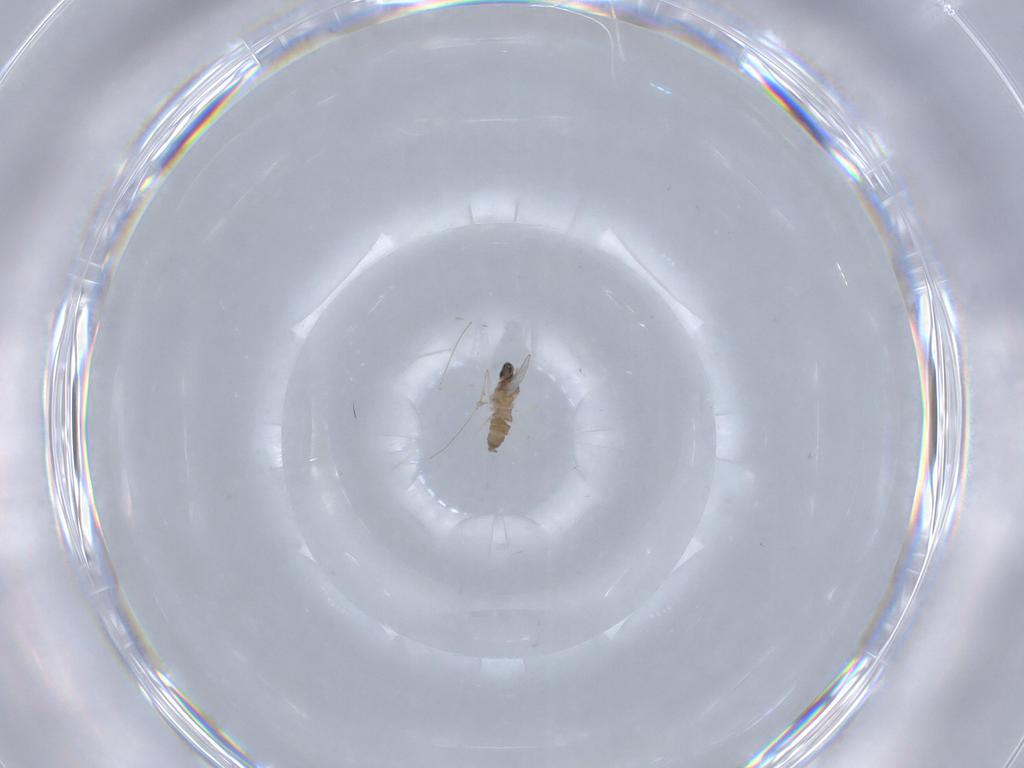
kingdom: Animalia
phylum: Arthropoda
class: Insecta
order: Diptera
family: Cecidomyiidae
